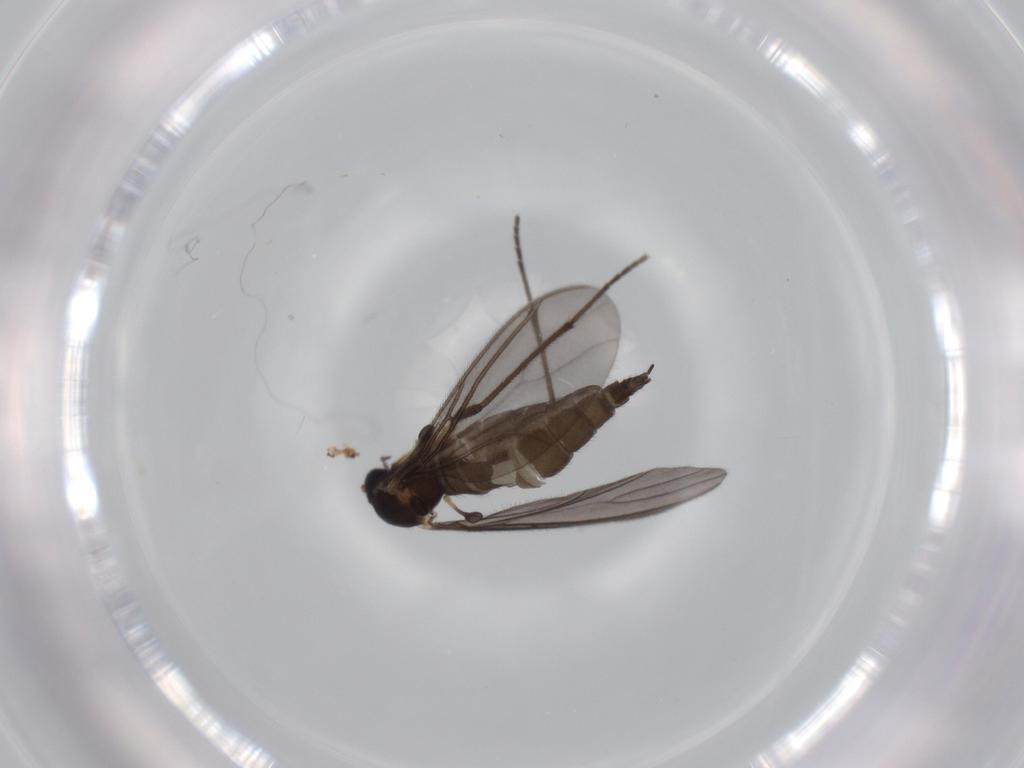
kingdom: Animalia
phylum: Arthropoda
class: Insecta
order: Diptera
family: Sciaridae
